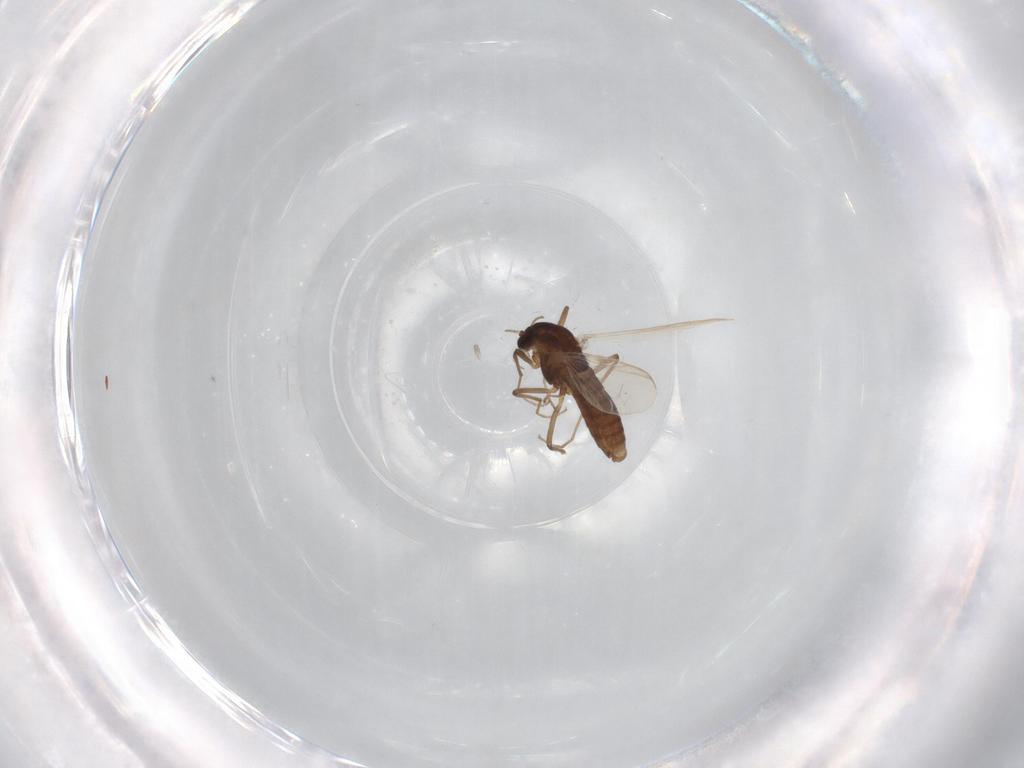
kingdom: Animalia
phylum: Arthropoda
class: Insecta
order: Diptera
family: Chironomidae
